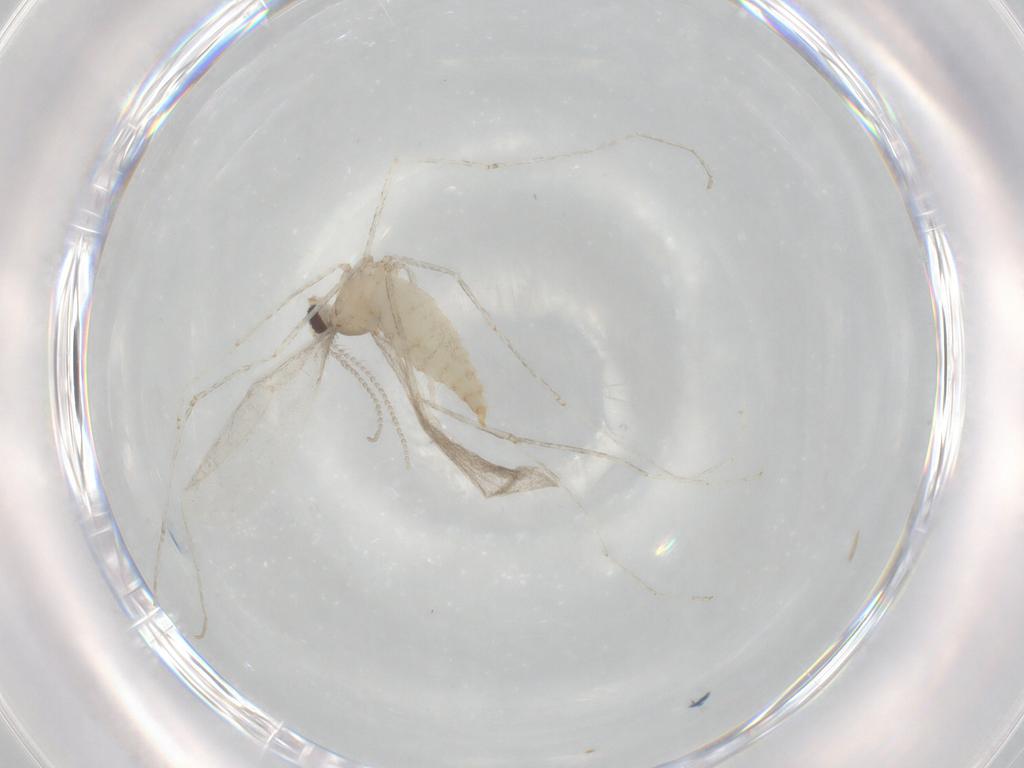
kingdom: Animalia
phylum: Arthropoda
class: Insecta
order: Diptera
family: Cecidomyiidae
